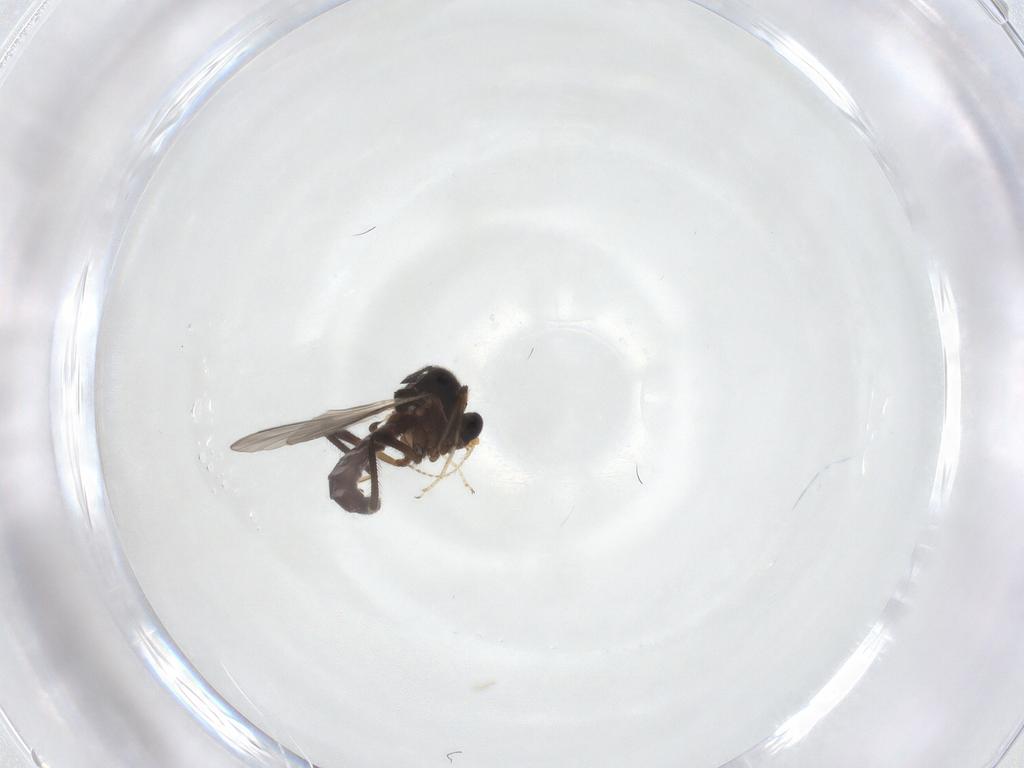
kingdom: Animalia
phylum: Arthropoda
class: Insecta
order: Diptera
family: Ceratopogonidae
